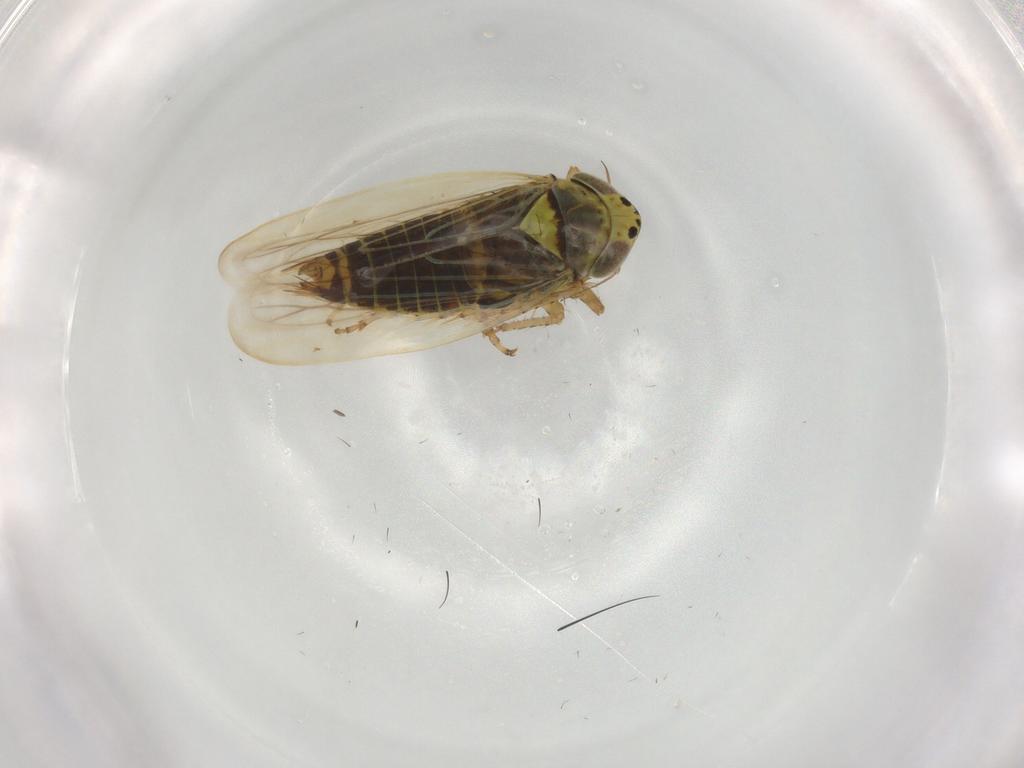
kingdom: Animalia
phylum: Arthropoda
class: Insecta
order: Hemiptera
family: Cicadellidae
